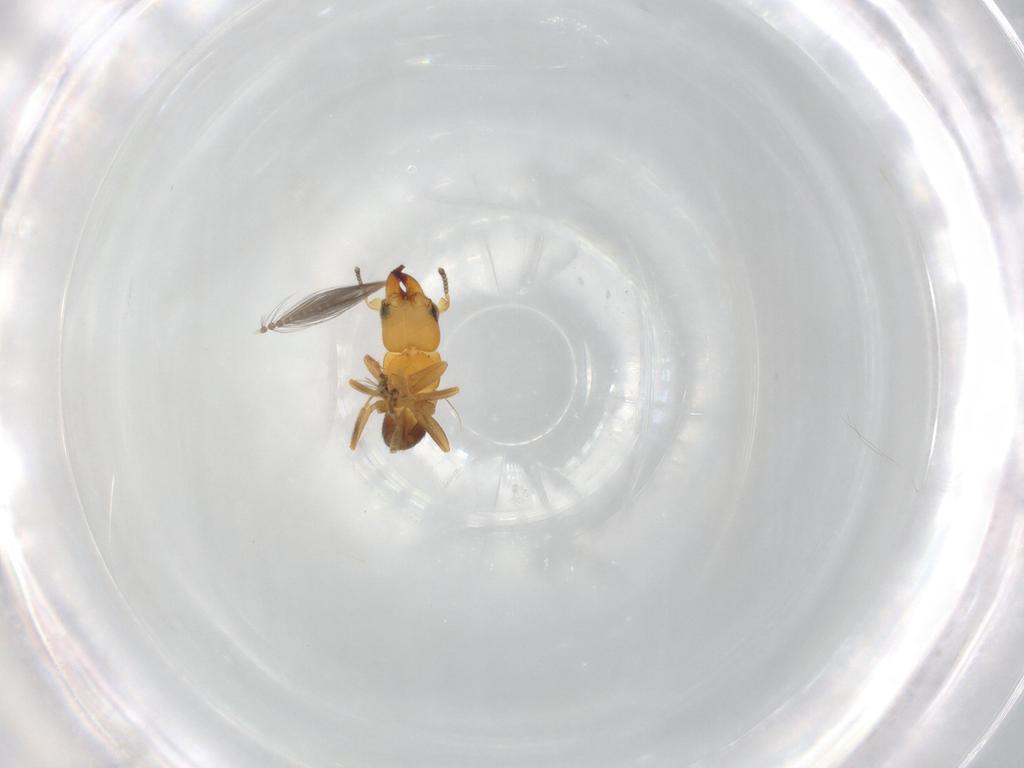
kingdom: Animalia
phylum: Arthropoda
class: Insecta
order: Diptera
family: Ceratopogonidae
